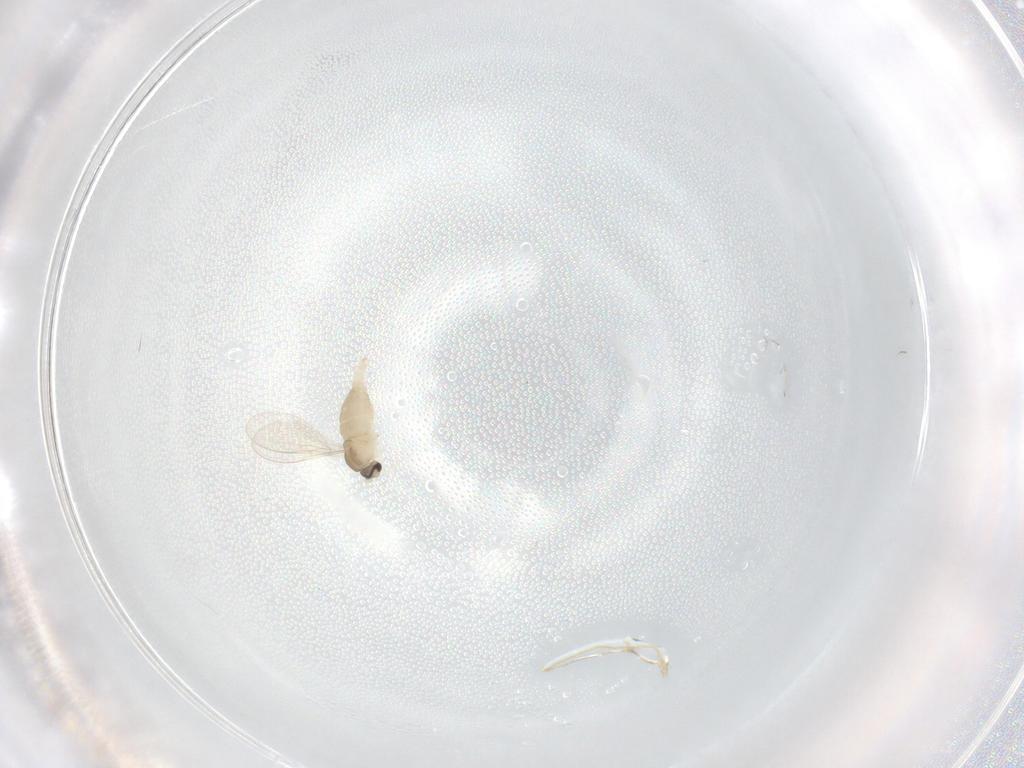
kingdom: Animalia
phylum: Arthropoda
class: Insecta
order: Diptera
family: Cecidomyiidae
